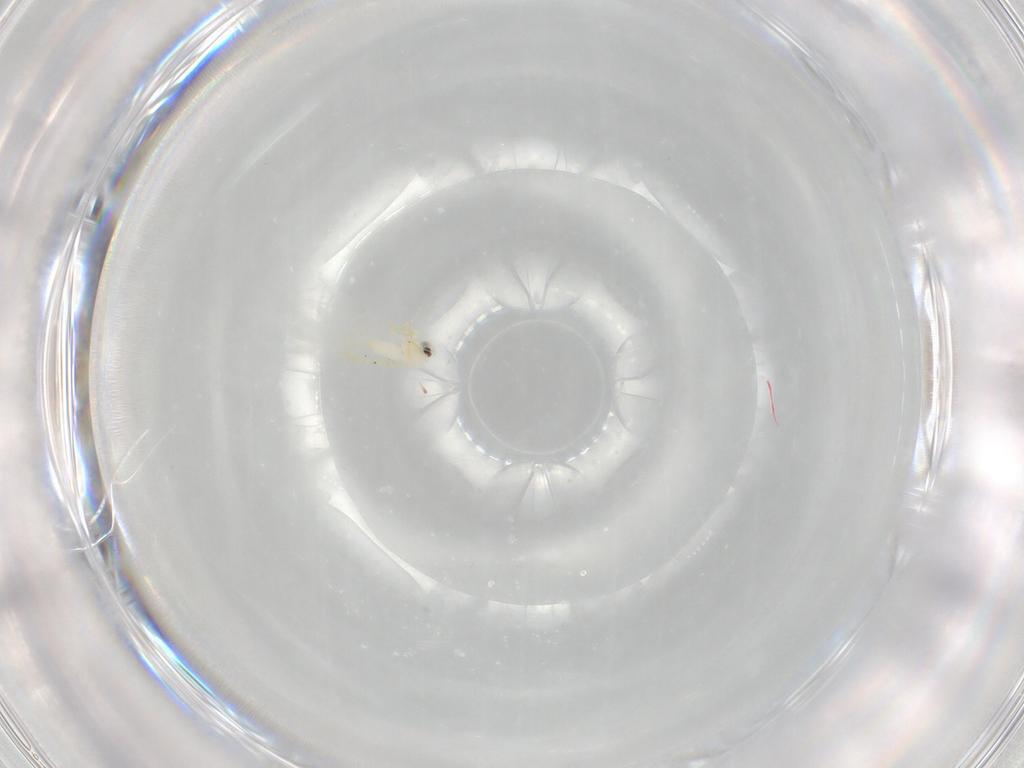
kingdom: Animalia
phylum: Arthropoda
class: Insecta
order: Hemiptera
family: Aleyrodidae
